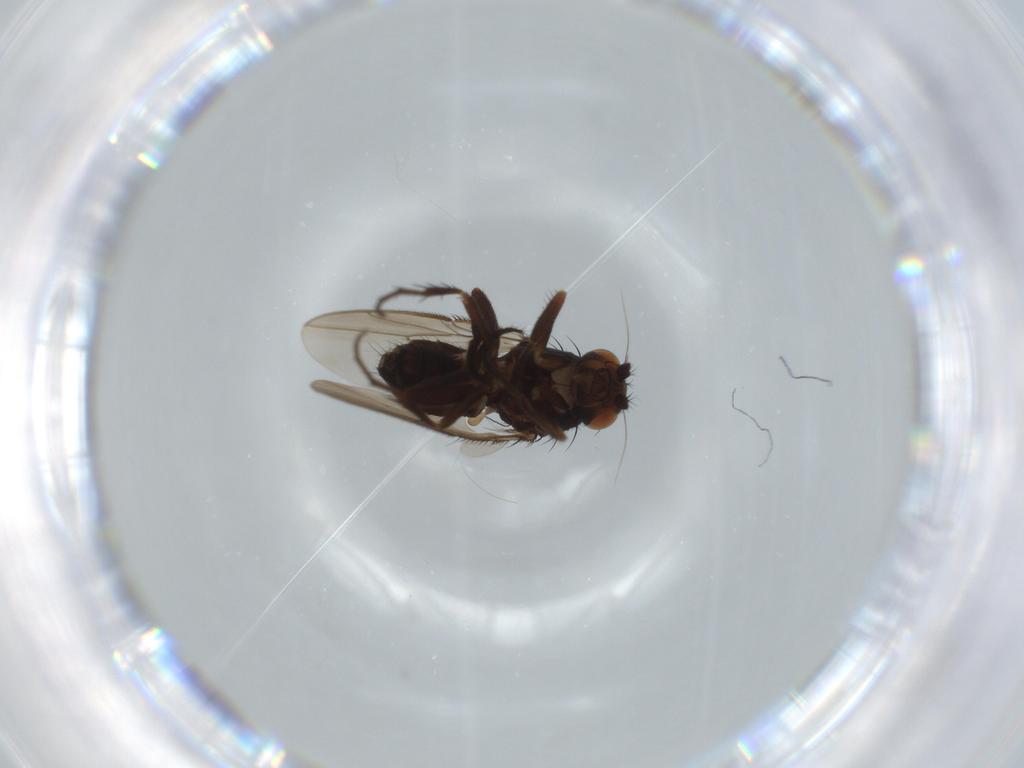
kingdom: Animalia
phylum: Arthropoda
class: Insecta
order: Diptera
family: Sphaeroceridae
